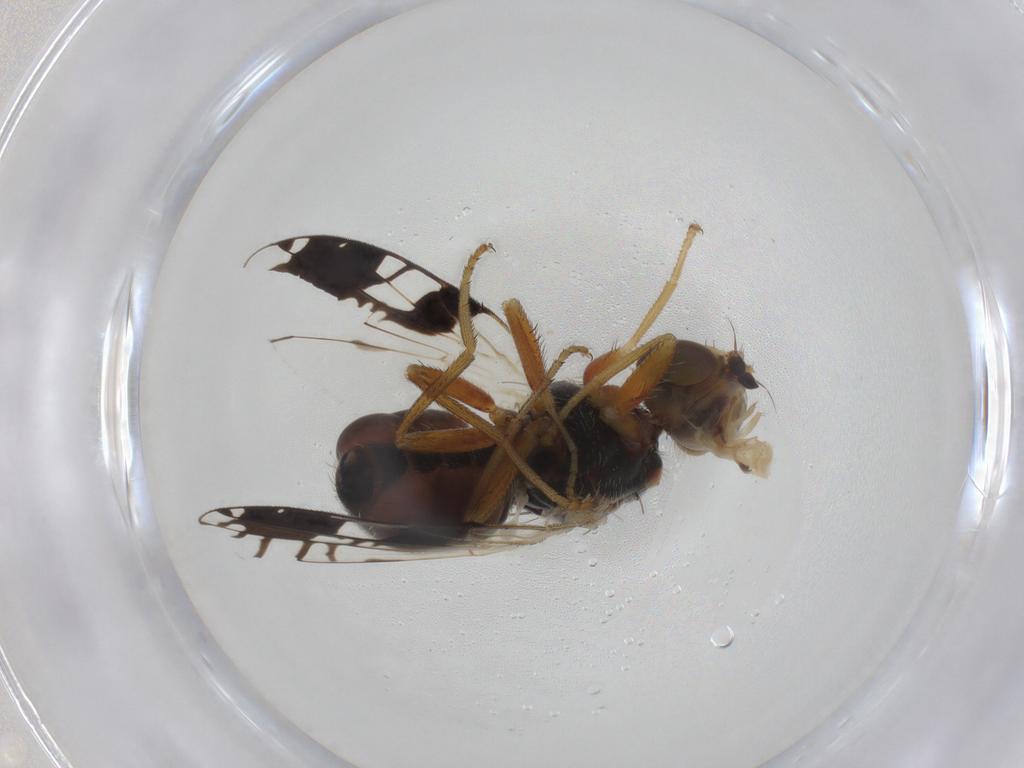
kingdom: Animalia
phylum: Arthropoda
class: Insecta
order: Diptera
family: Tephritidae
